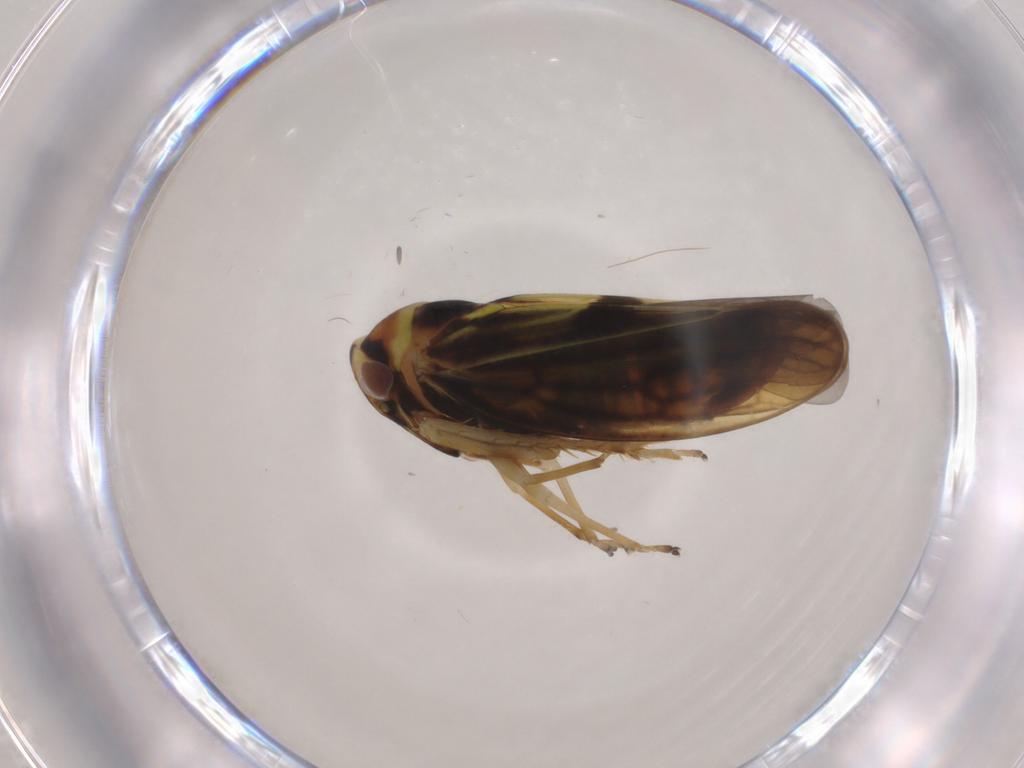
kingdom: Animalia
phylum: Arthropoda
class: Insecta
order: Hemiptera
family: Cicadellidae
